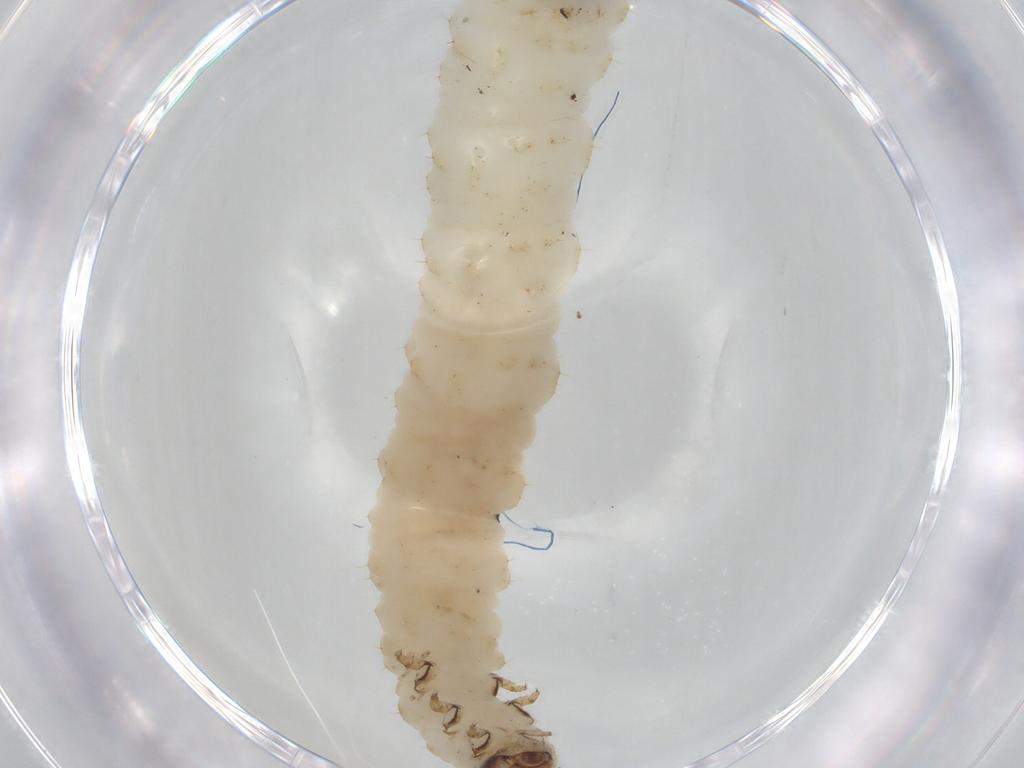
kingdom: Animalia
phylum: Arthropoda
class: Insecta
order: Coleoptera
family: Chrysomelidae
